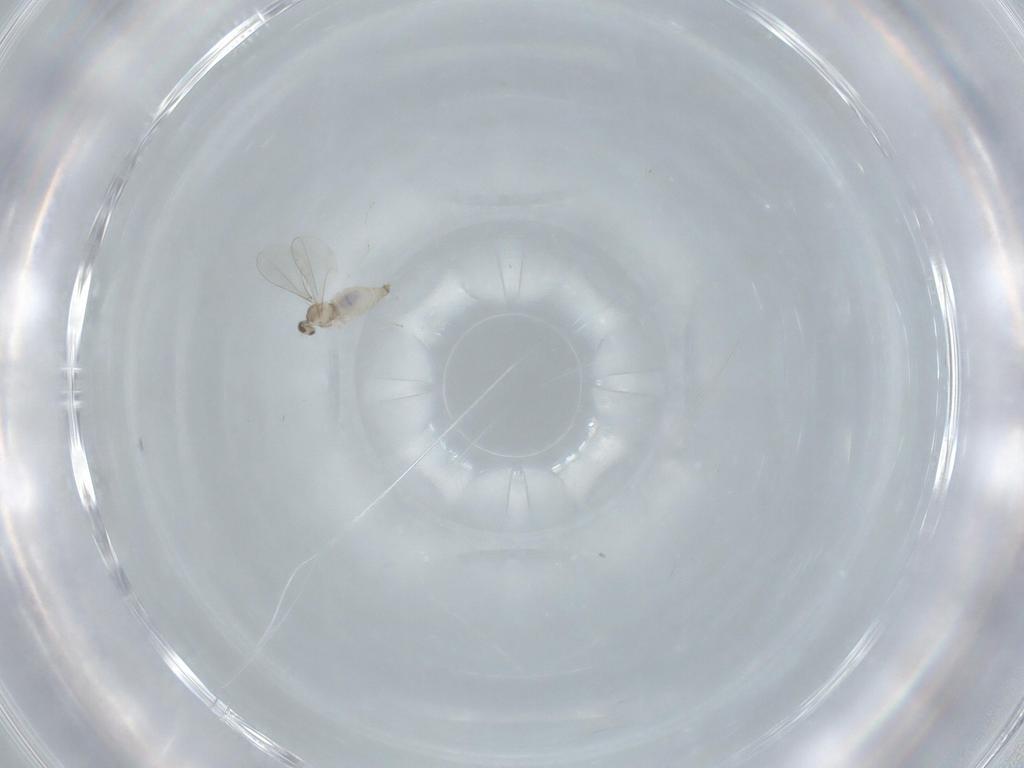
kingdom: Animalia
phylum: Arthropoda
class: Insecta
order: Diptera
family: Cecidomyiidae
